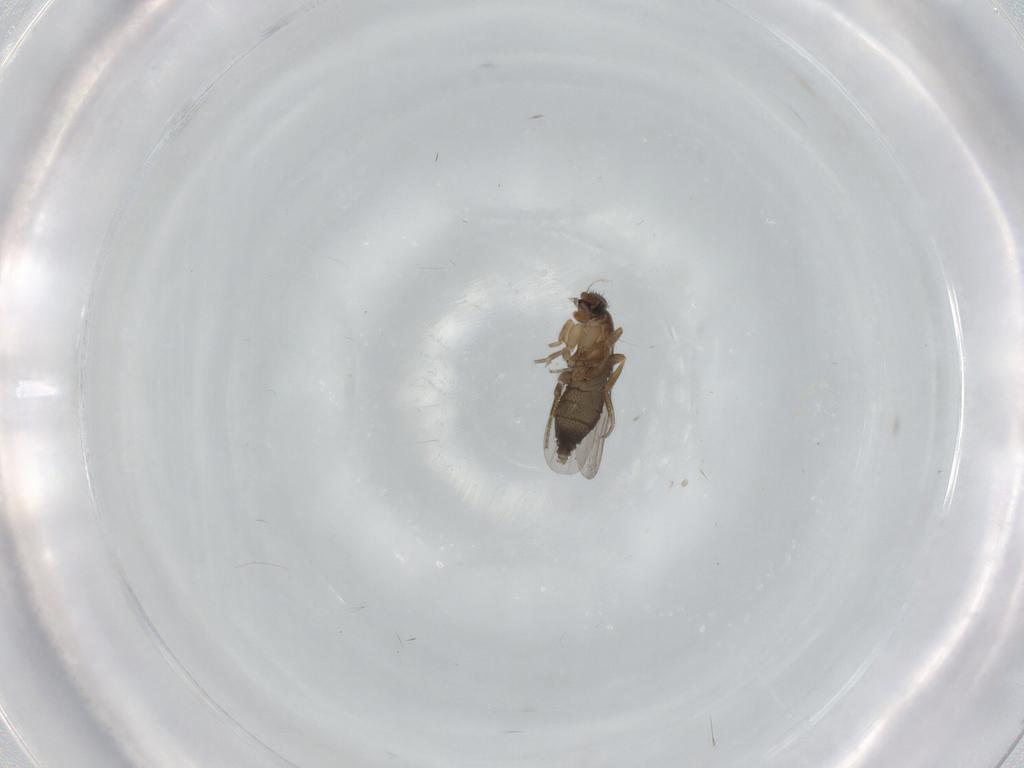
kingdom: Animalia
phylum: Arthropoda
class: Insecta
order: Diptera
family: Cecidomyiidae
